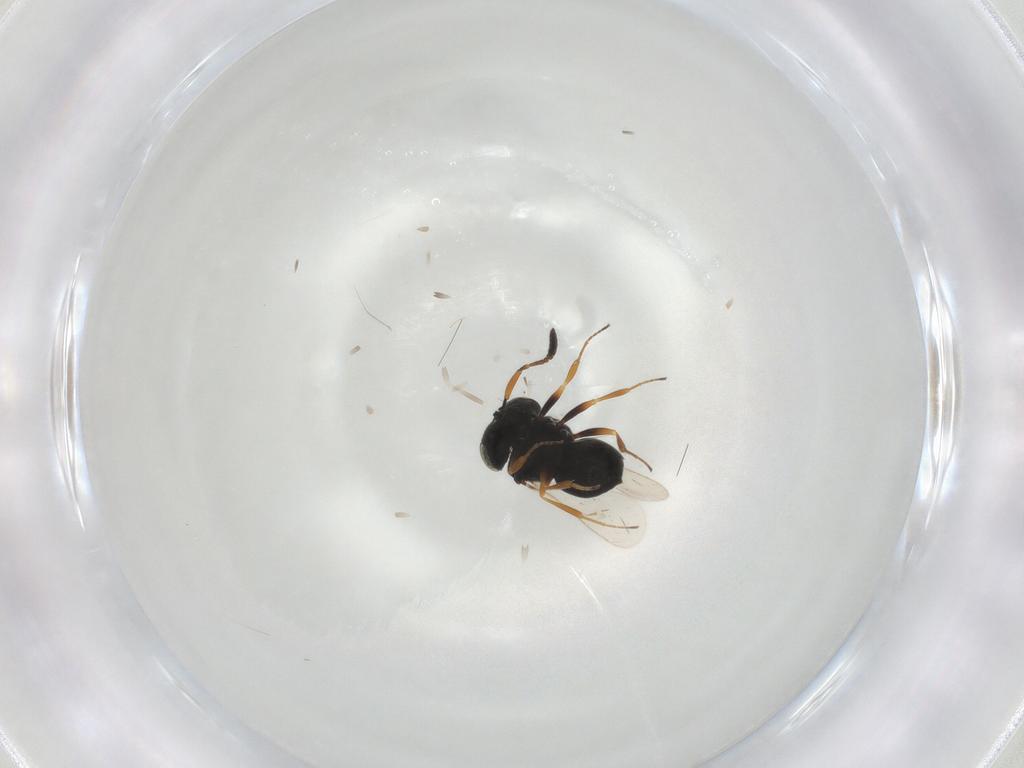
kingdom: Animalia
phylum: Arthropoda
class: Insecta
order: Hymenoptera
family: Scelionidae
